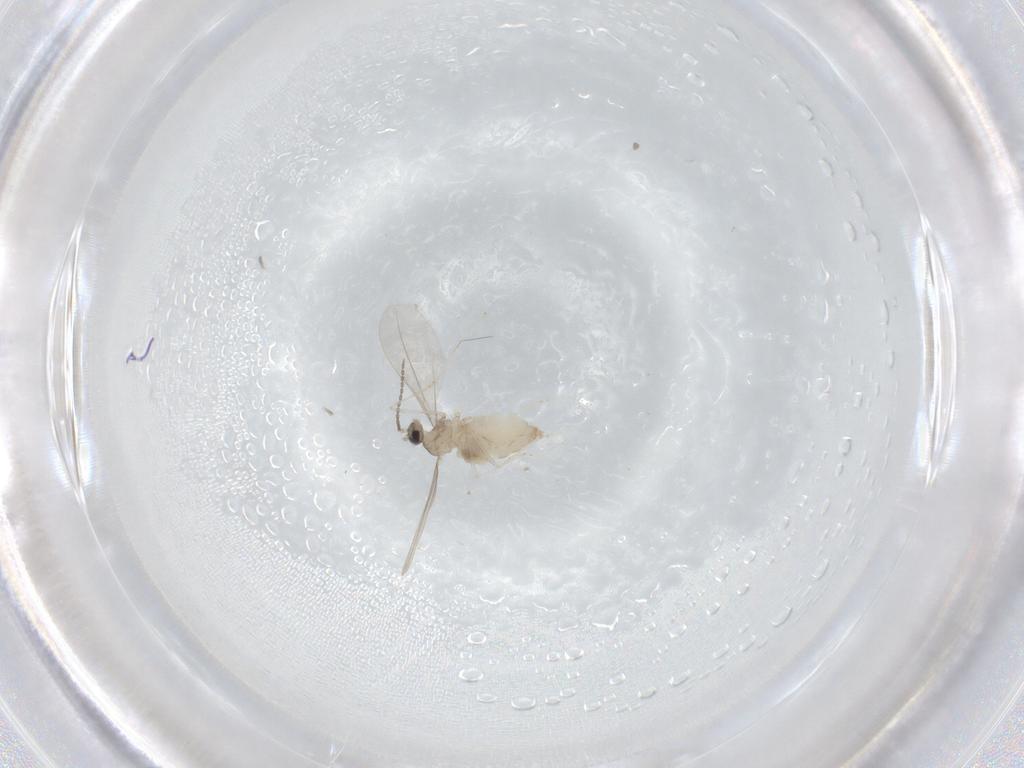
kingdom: Animalia
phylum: Arthropoda
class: Insecta
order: Diptera
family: Cecidomyiidae
